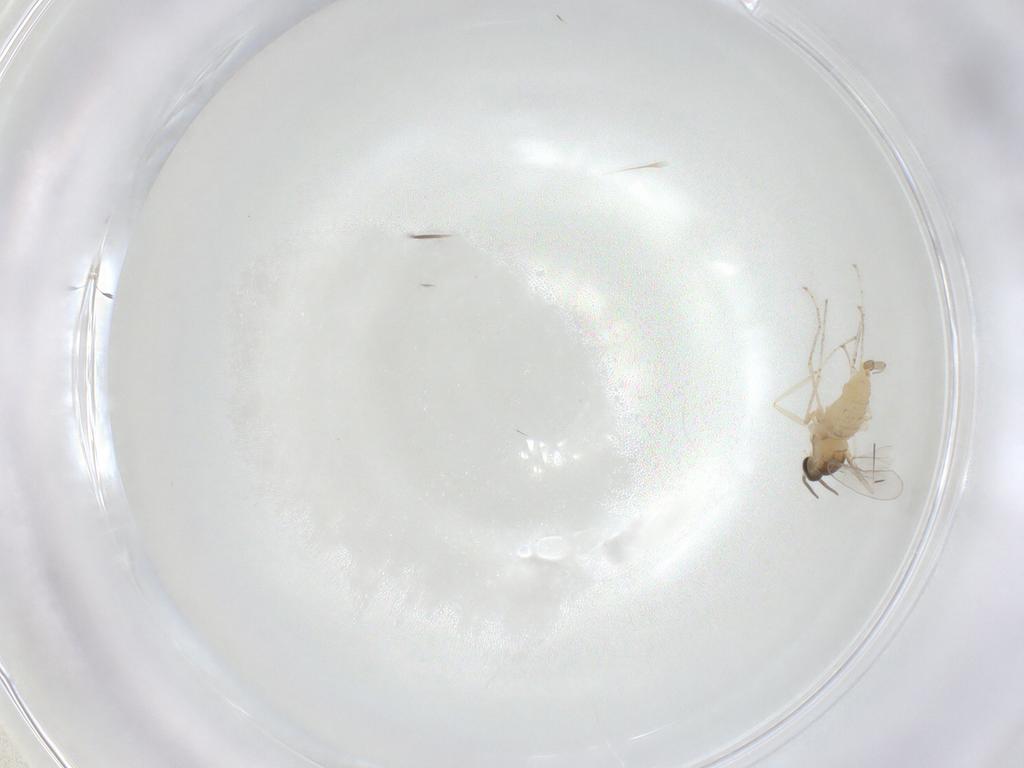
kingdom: Animalia
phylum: Arthropoda
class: Insecta
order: Diptera
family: Cecidomyiidae
